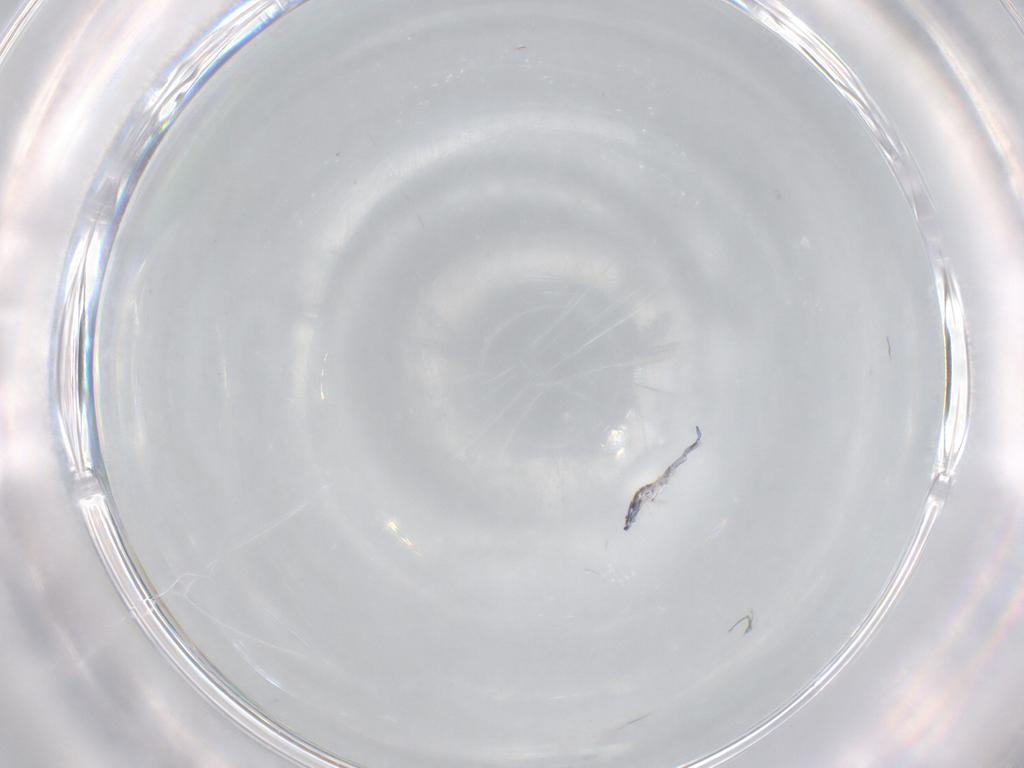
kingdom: Animalia
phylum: Arthropoda
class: Collembola
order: Entomobryomorpha
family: Entomobryidae
